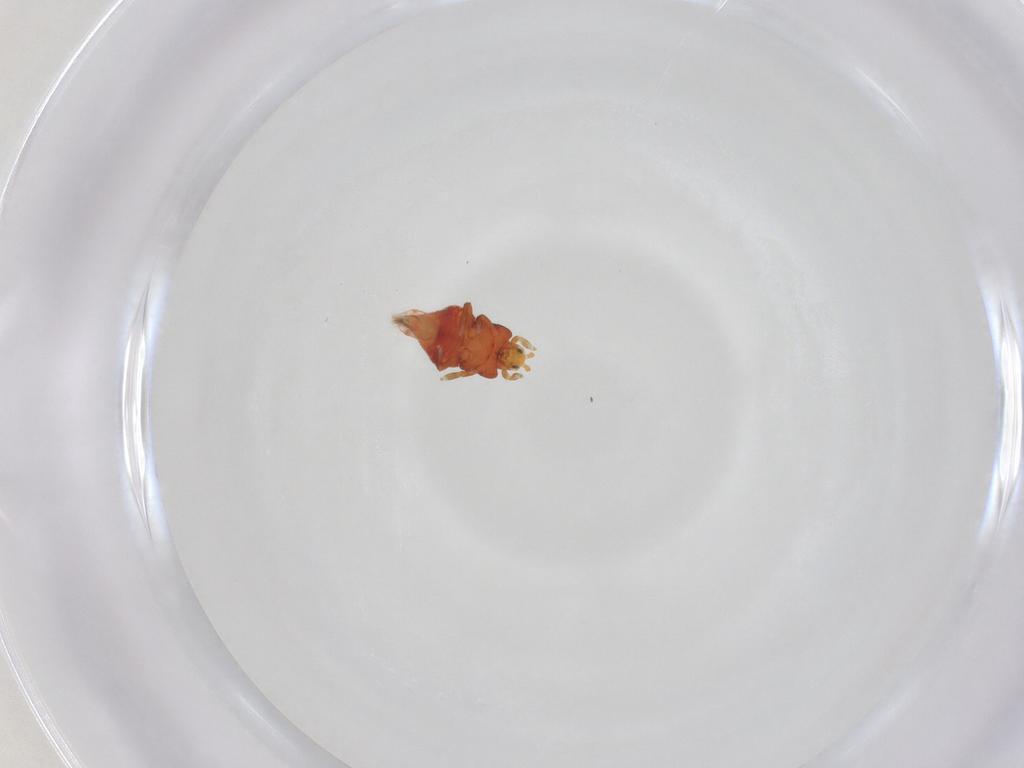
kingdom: Animalia
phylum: Arthropoda
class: Insecta
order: Thysanoptera
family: Thripidae
